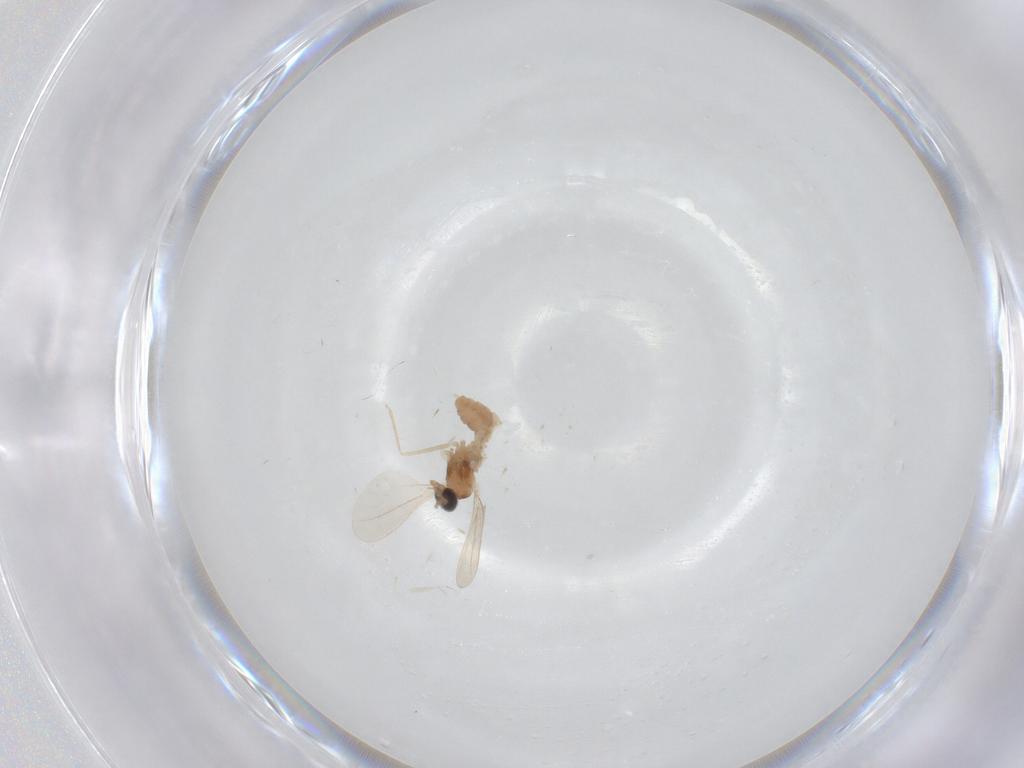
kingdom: Animalia
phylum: Arthropoda
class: Insecta
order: Diptera
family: Cecidomyiidae
